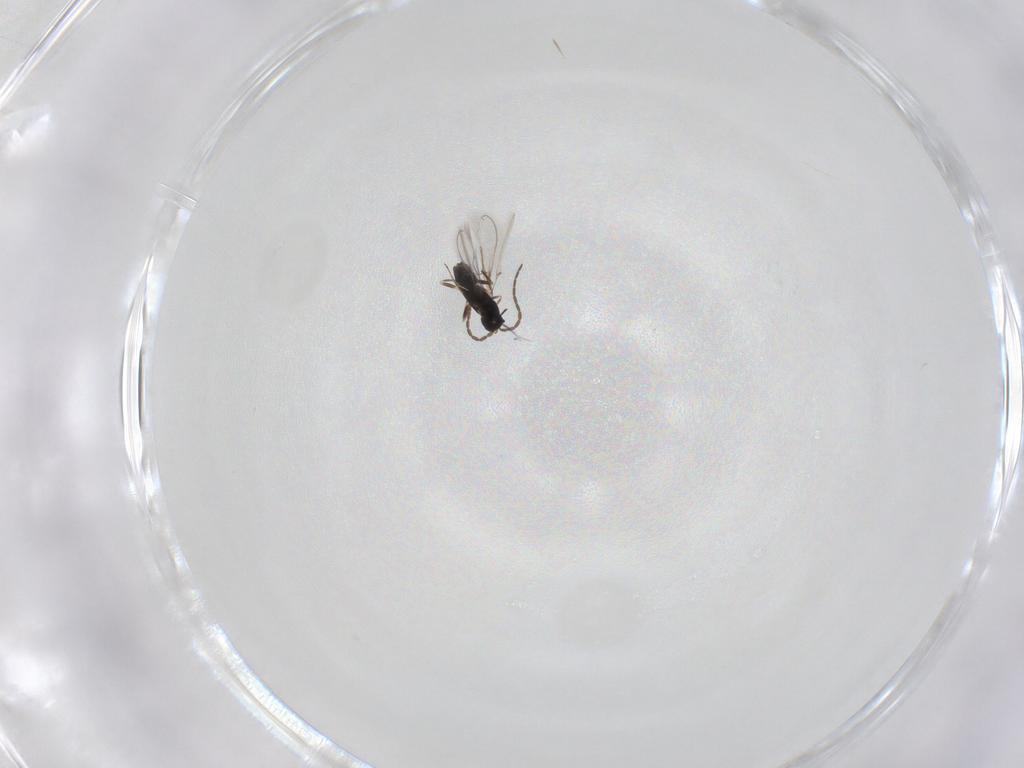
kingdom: Animalia
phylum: Arthropoda
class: Insecta
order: Hymenoptera
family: Mymaridae
